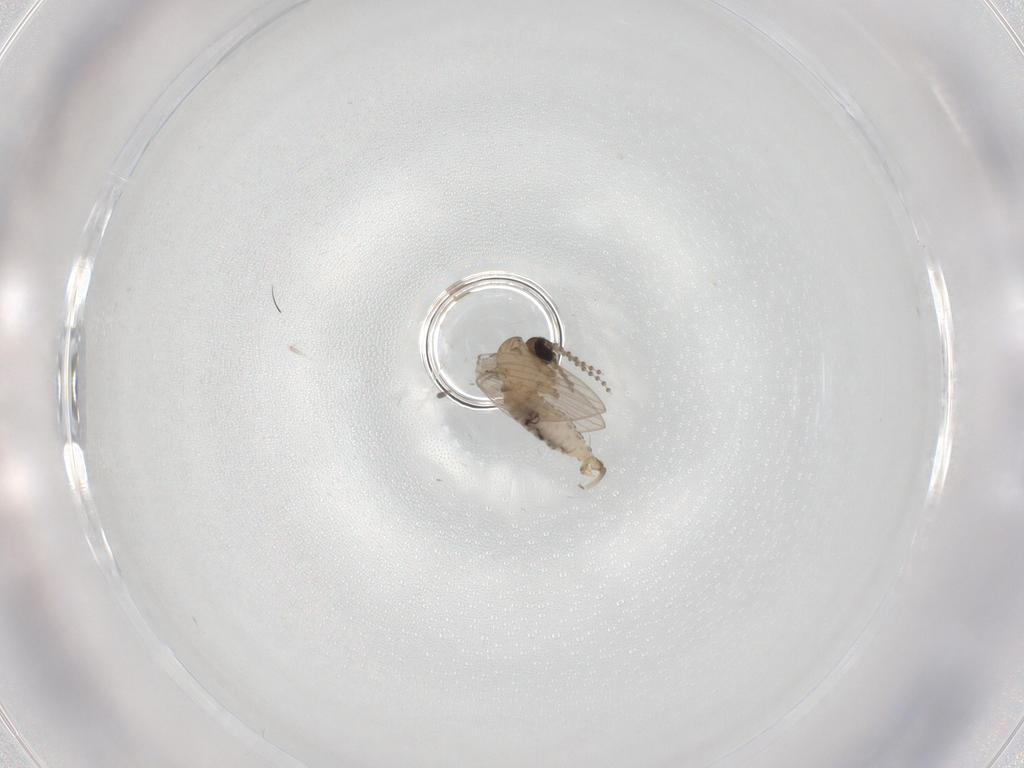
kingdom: Animalia
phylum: Arthropoda
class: Insecta
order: Diptera
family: Psychodidae
